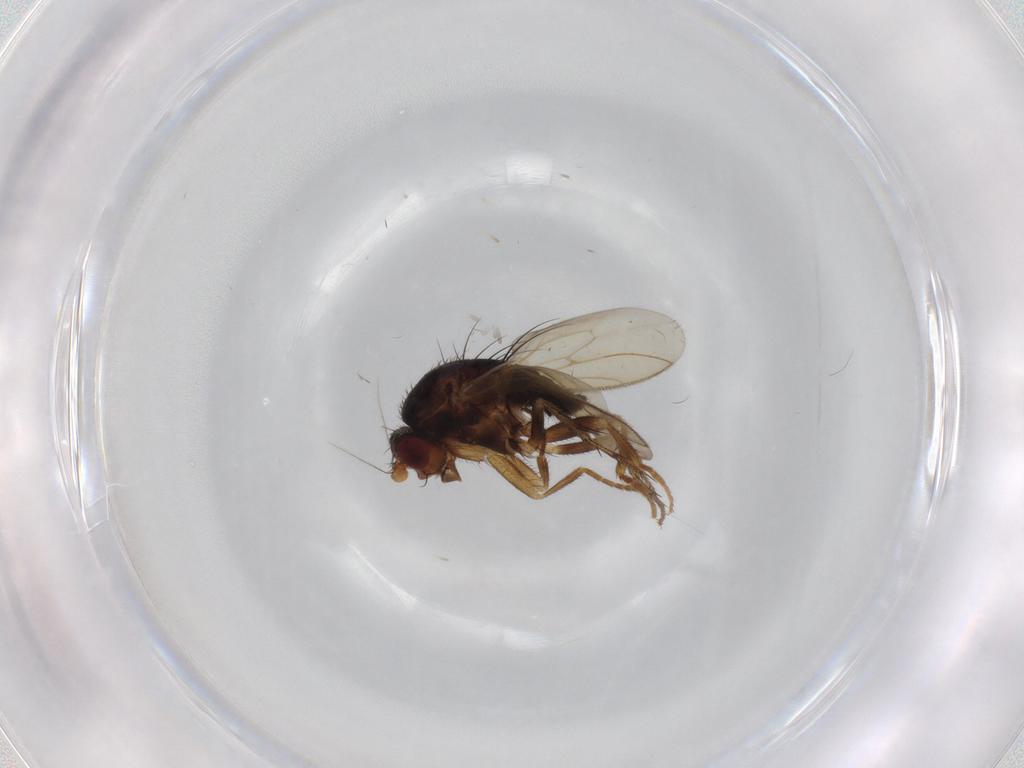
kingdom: Animalia
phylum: Arthropoda
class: Insecta
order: Diptera
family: Sphaeroceridae
